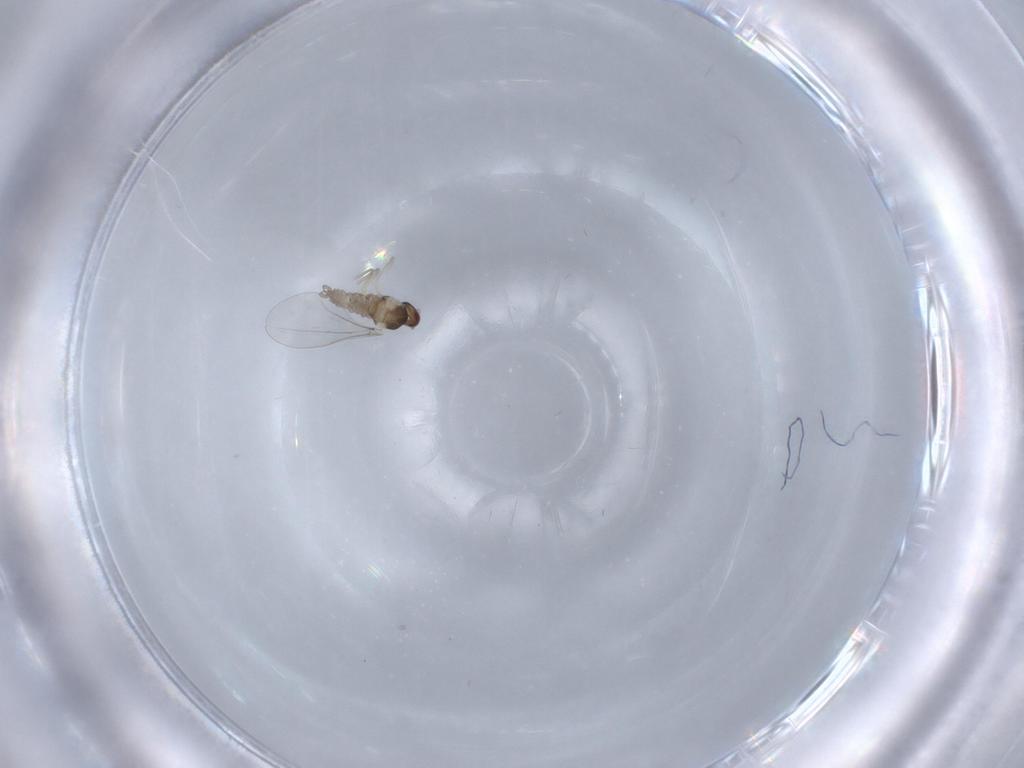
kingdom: Animalia
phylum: Arthropoda
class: Insecta
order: Diptera
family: Cecidomyiidae
